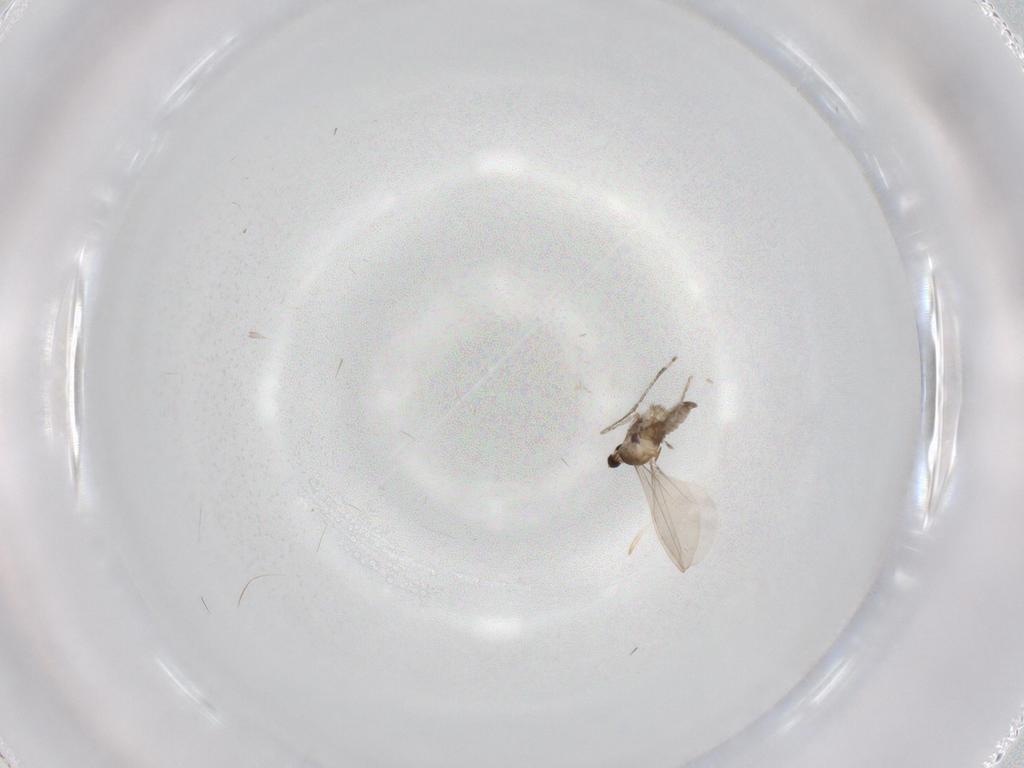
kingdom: Animalia
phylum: Arthropoda
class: Insecta
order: Diptera
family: Cecidomyiidae
